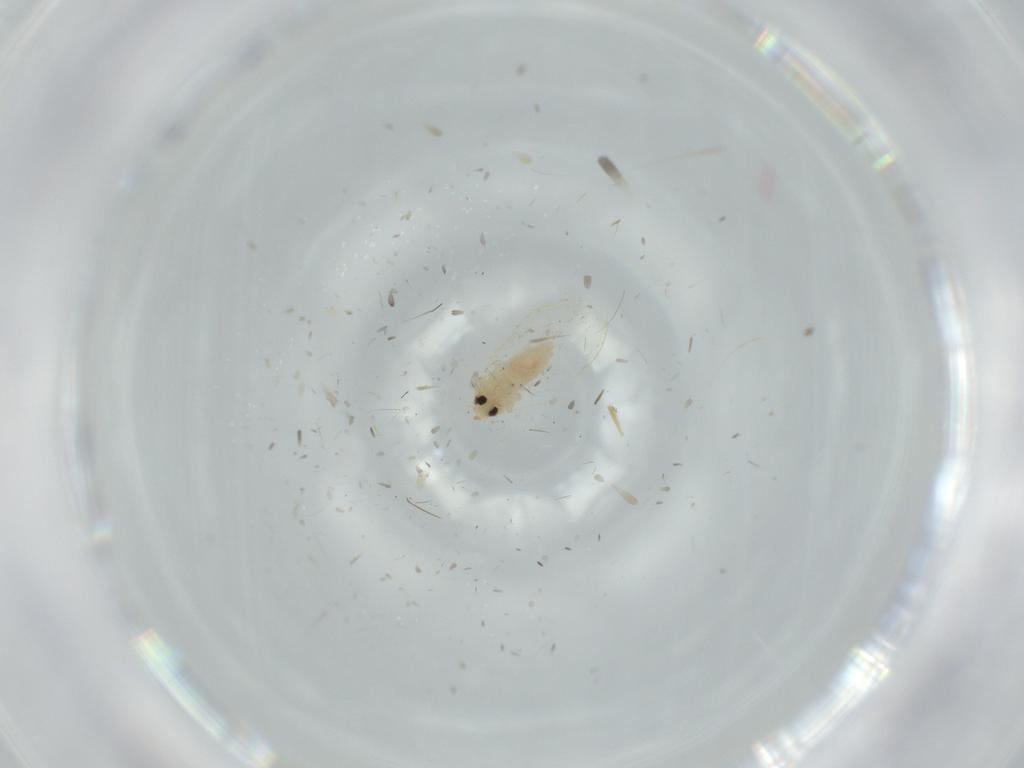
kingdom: Animalia
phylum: Arthropoda
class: Insecta
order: Hemiptera
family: Aleyrodidae
